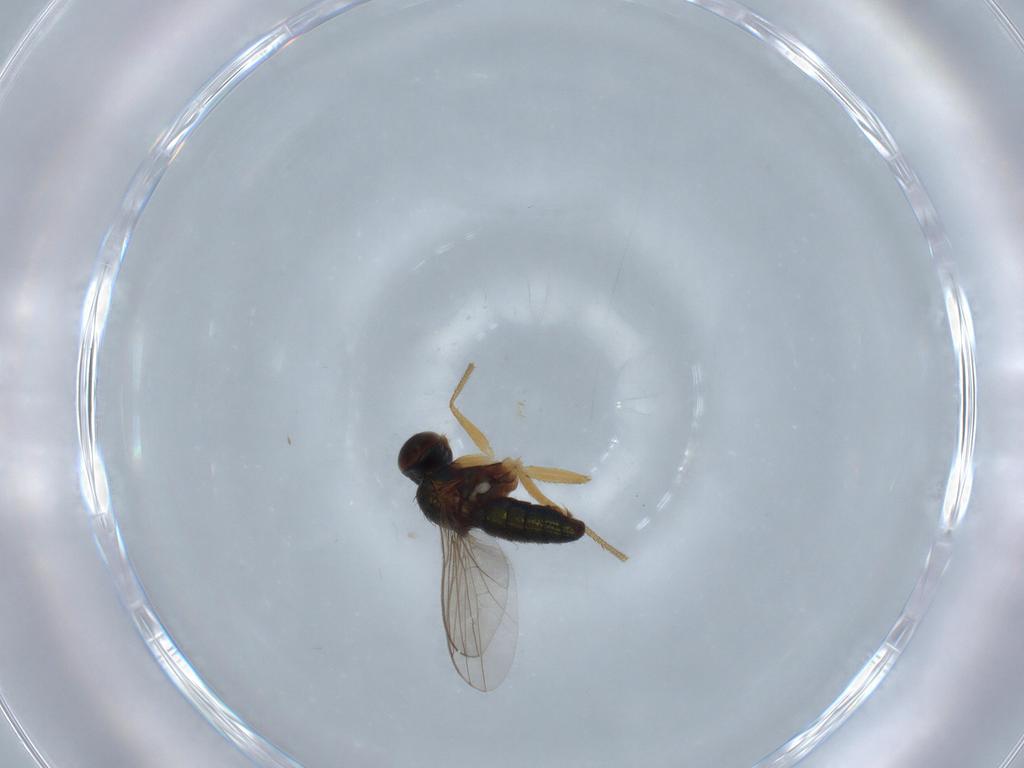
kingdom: Animalia
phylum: Arthropoda
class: Insecta
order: Diptera
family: Dolichopodidae
